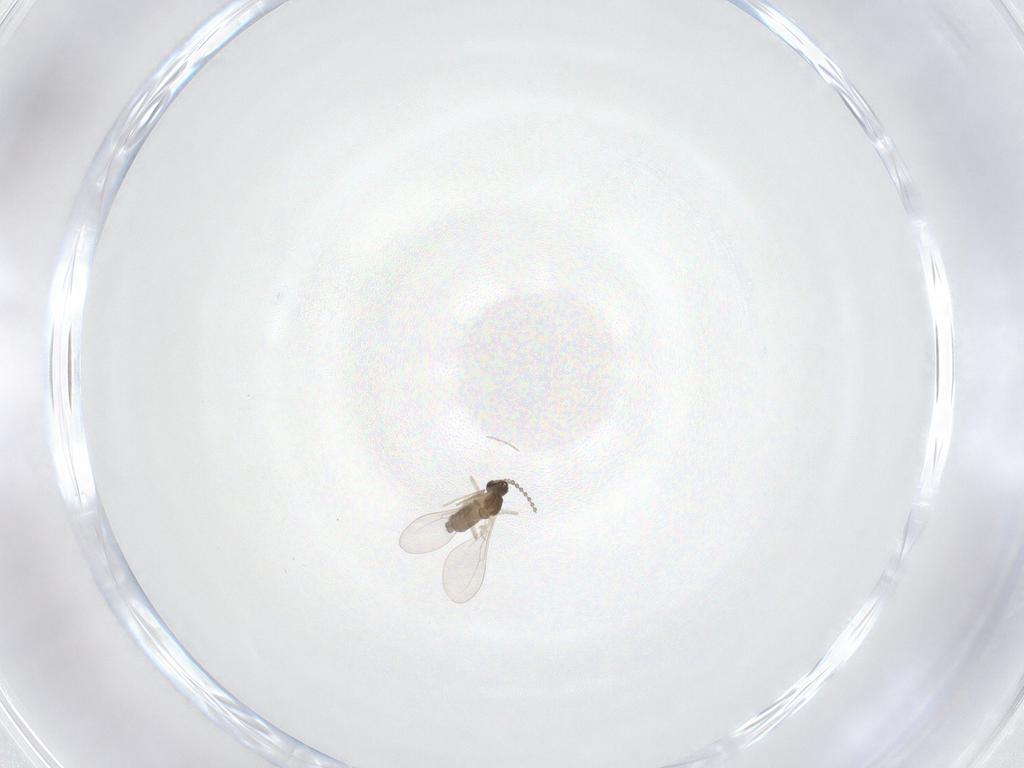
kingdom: Animalia
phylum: Arthropoda
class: Insecta
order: Diptera
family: Cecidomyiidae
